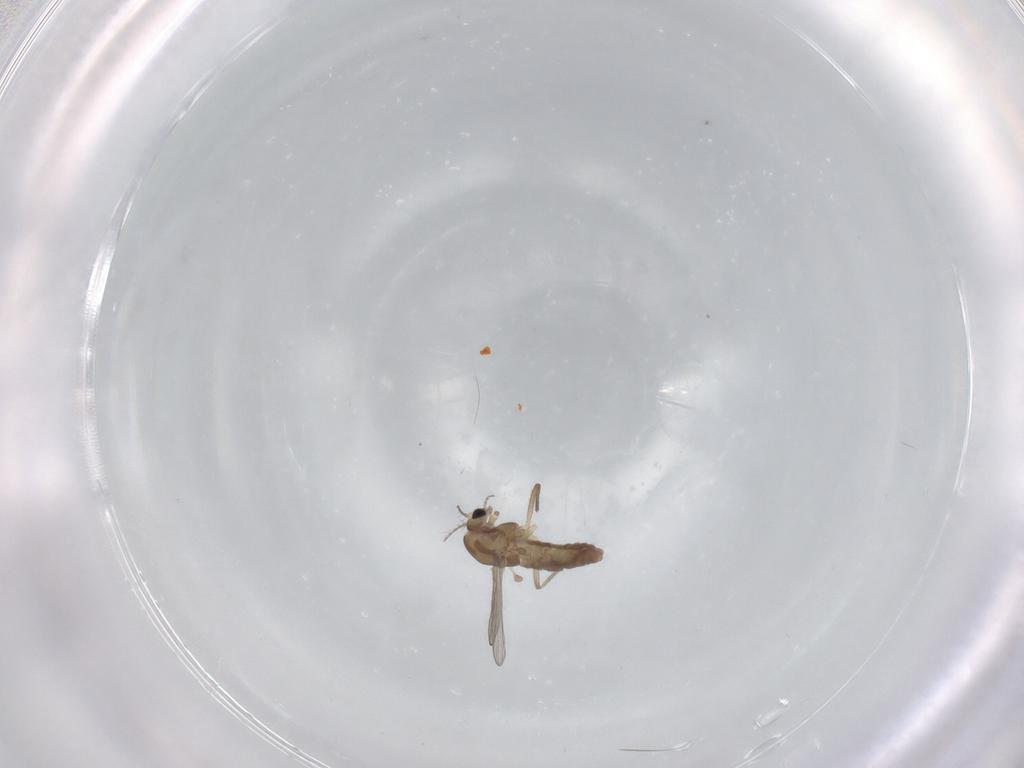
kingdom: Animalia
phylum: Arthropoda
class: Insecta
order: Diptera
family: Chironomidae
